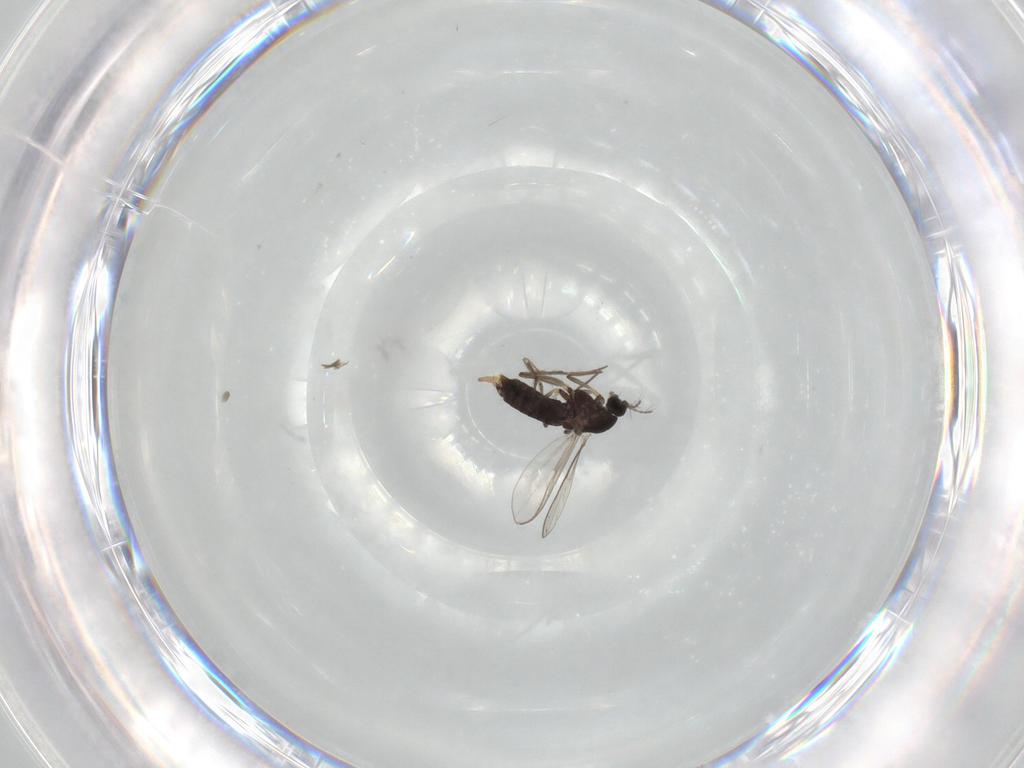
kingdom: Animalia
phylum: Arthropoda
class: Insecta
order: Diptera
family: Chironomidae
